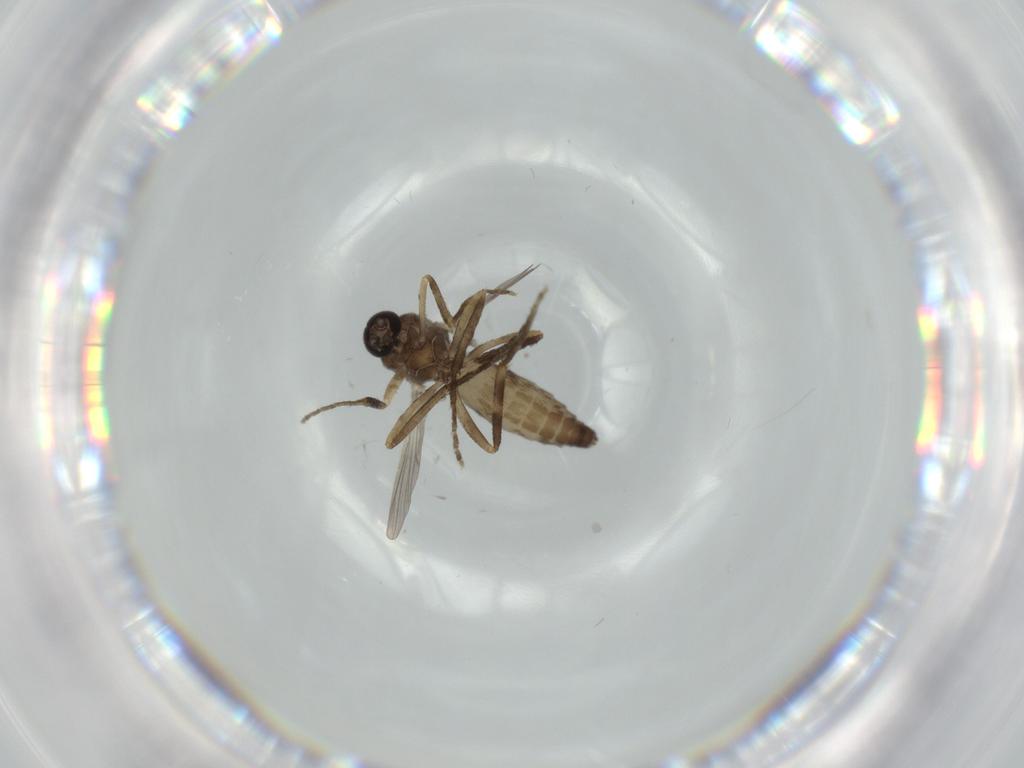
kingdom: Animalia
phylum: Arthropoda
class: Insecta
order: Diptera
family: Ceratopogonidae
